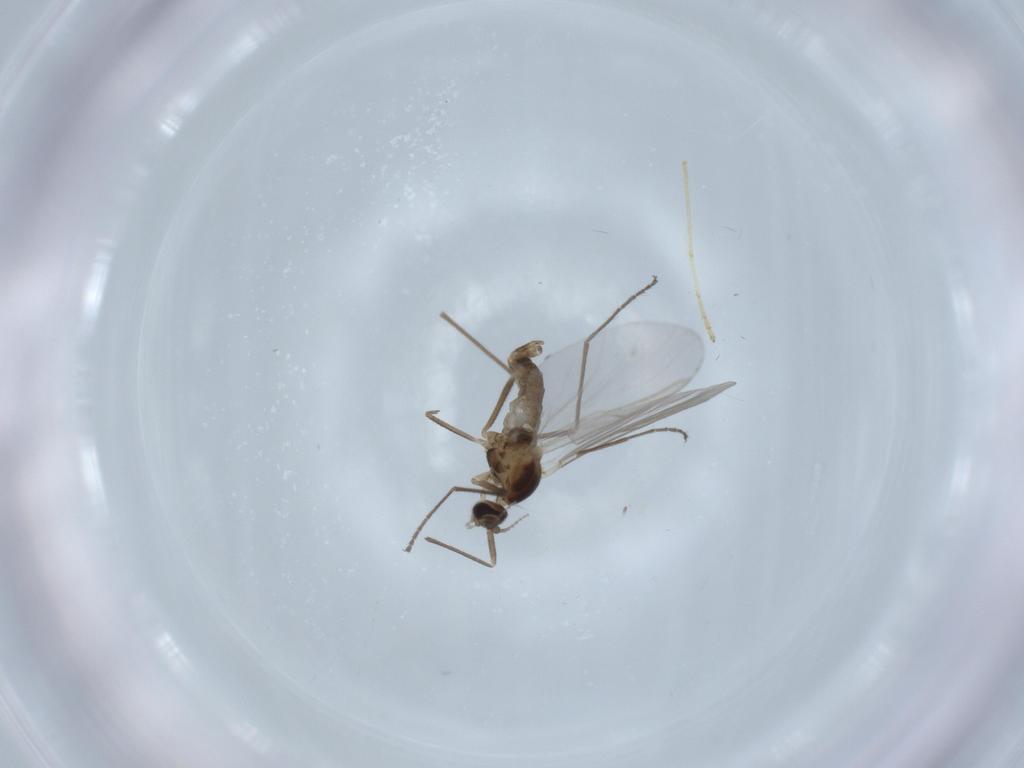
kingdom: Animalia
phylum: Arthropoda
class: Insecta
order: Diptera
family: Cecidomyiidae
